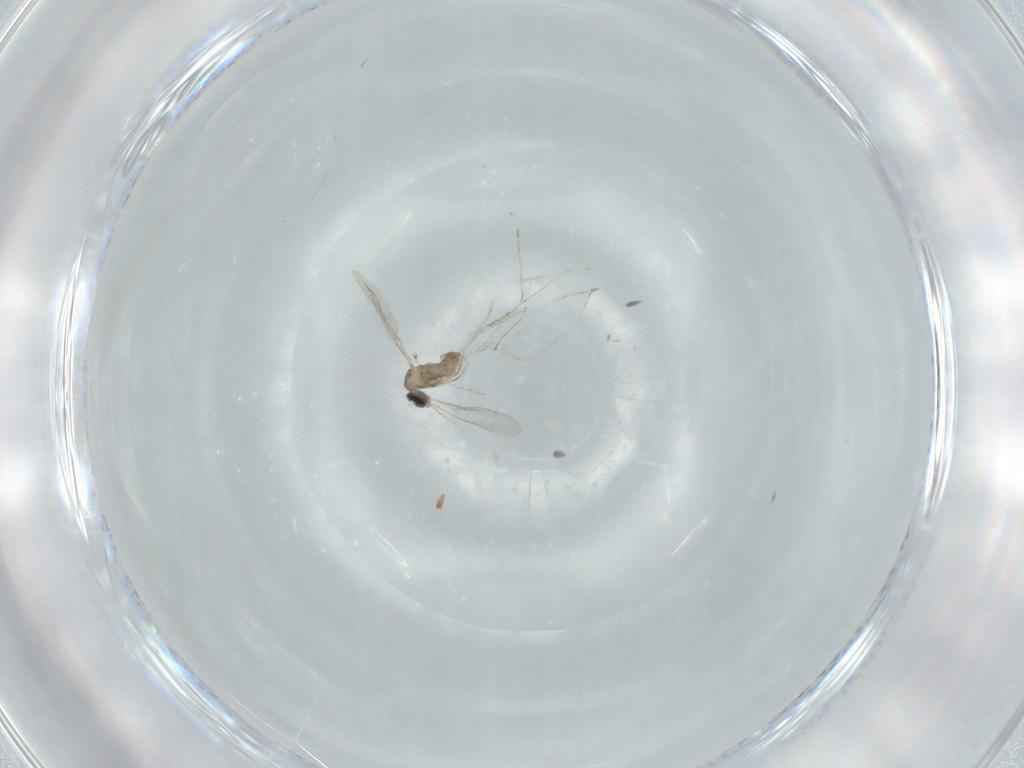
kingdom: Animalia
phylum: Arthropoda
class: Insecta
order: Diptera
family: Cecidomyiidae
